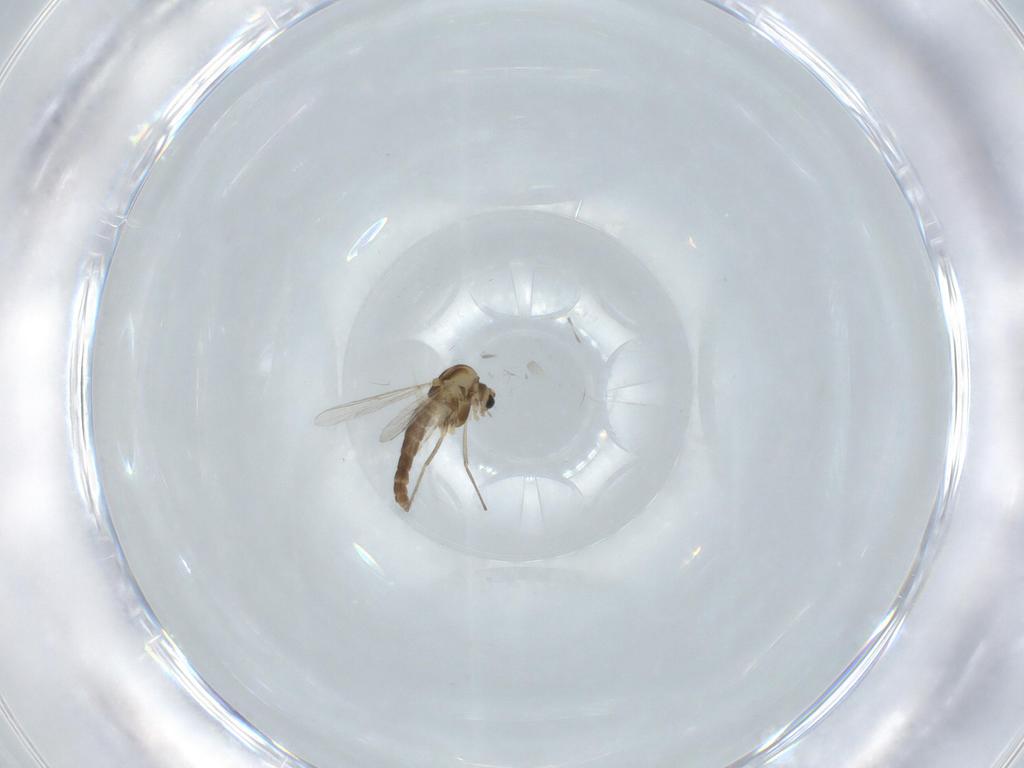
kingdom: Animalia
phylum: Arthropoda
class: Insecta
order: Diptera
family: Chironomidae
